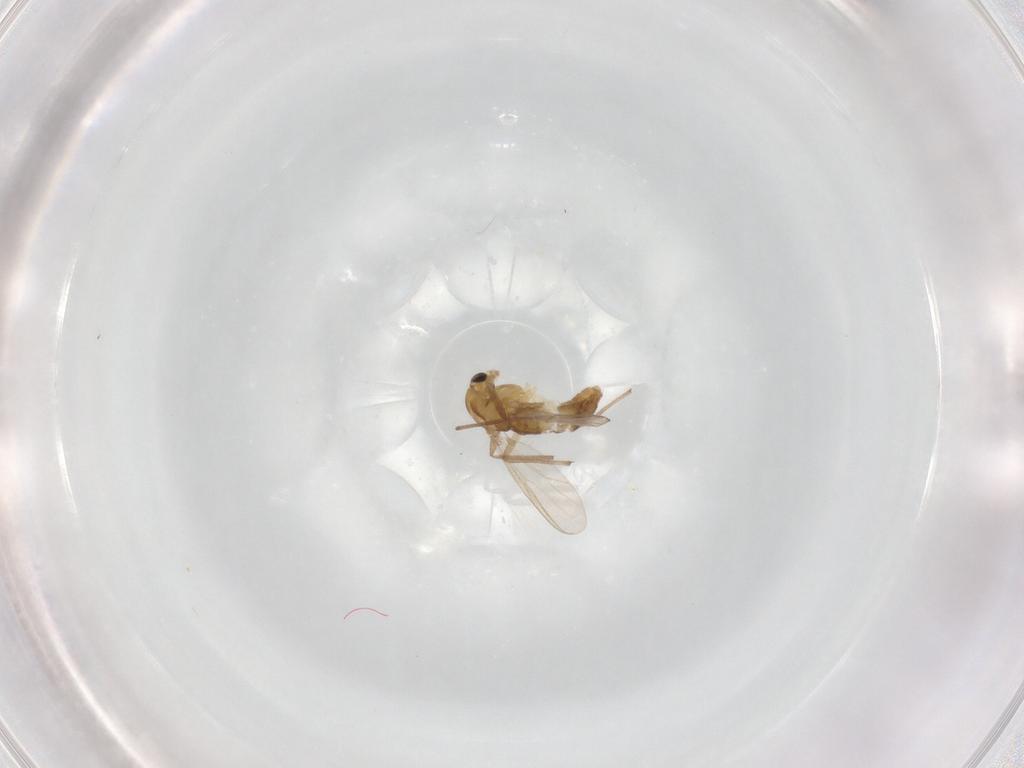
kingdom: Animalia
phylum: Arthropoda
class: Insecta
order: Diptera
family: Chironomidae
